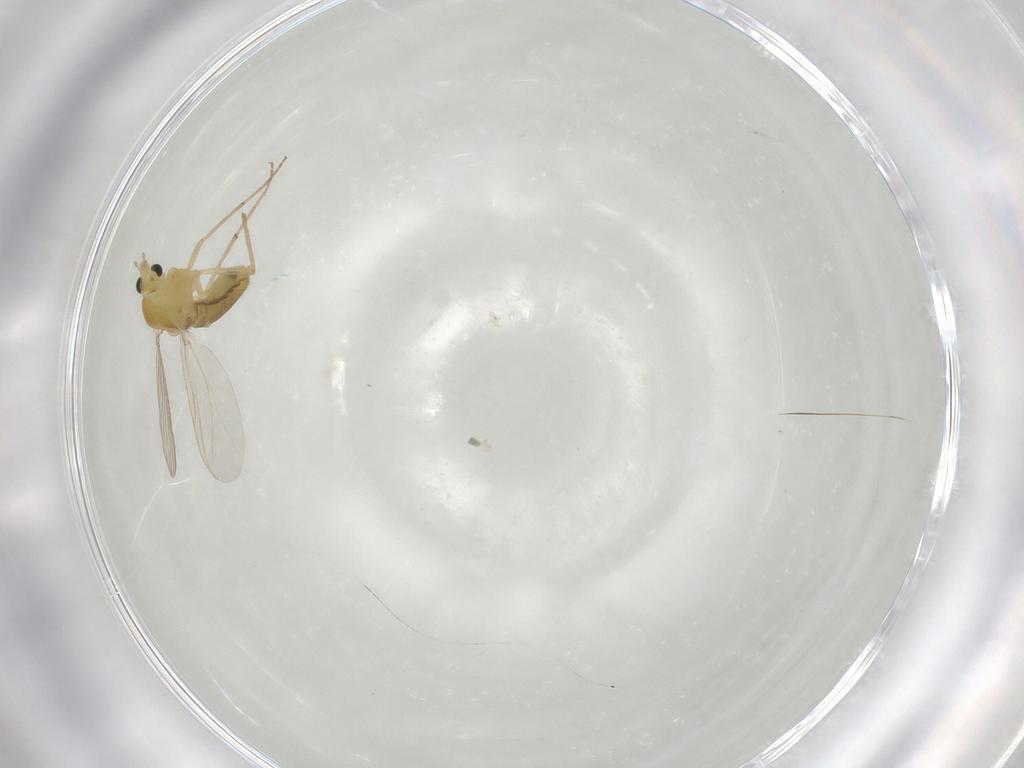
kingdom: Animalia
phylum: Arthropoda
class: Insecta
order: Diptera
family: Chironomidae
